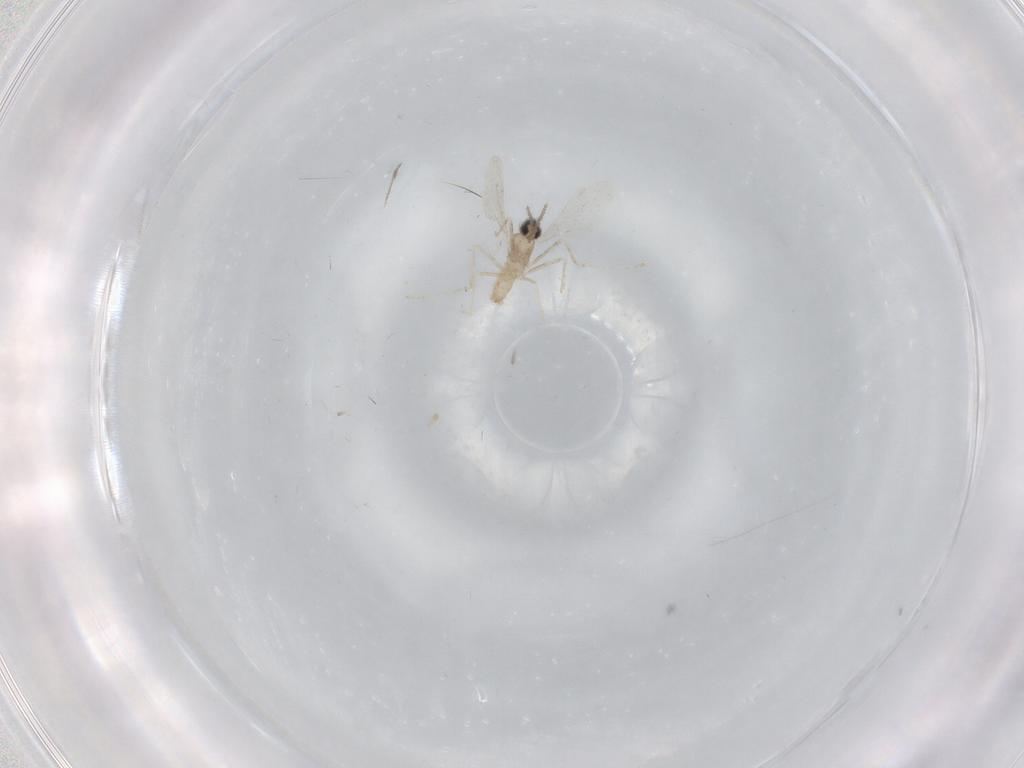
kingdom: Animalia
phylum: Arthropoda
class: Insecta
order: Diptera
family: Cecidomyiidae
